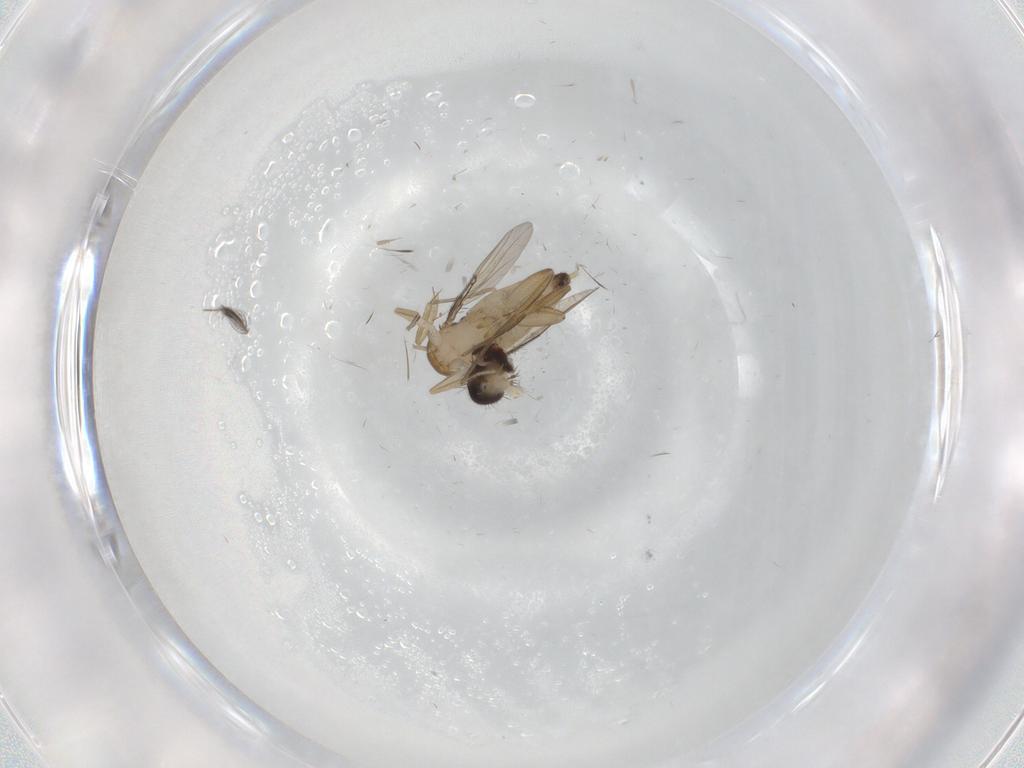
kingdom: Animalia
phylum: Arthropoda
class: Insecta
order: Diptera
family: Phoridae
